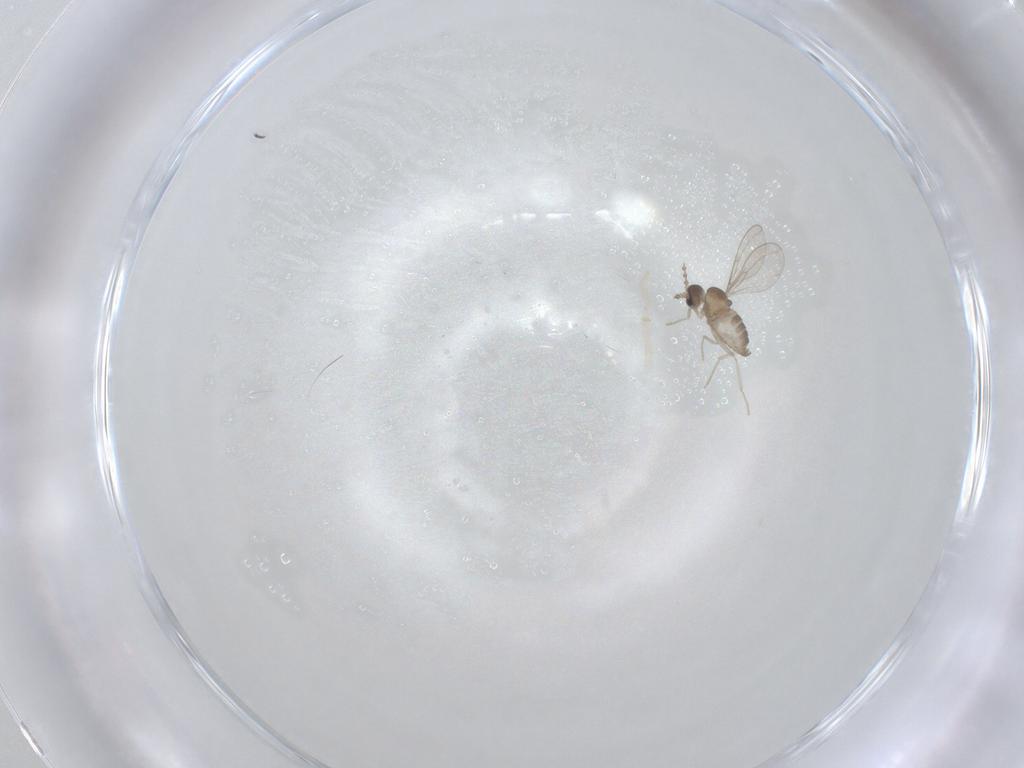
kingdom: Animalia
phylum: Arthropoda
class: Insecta
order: Diptera
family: Cecidomyiidae
